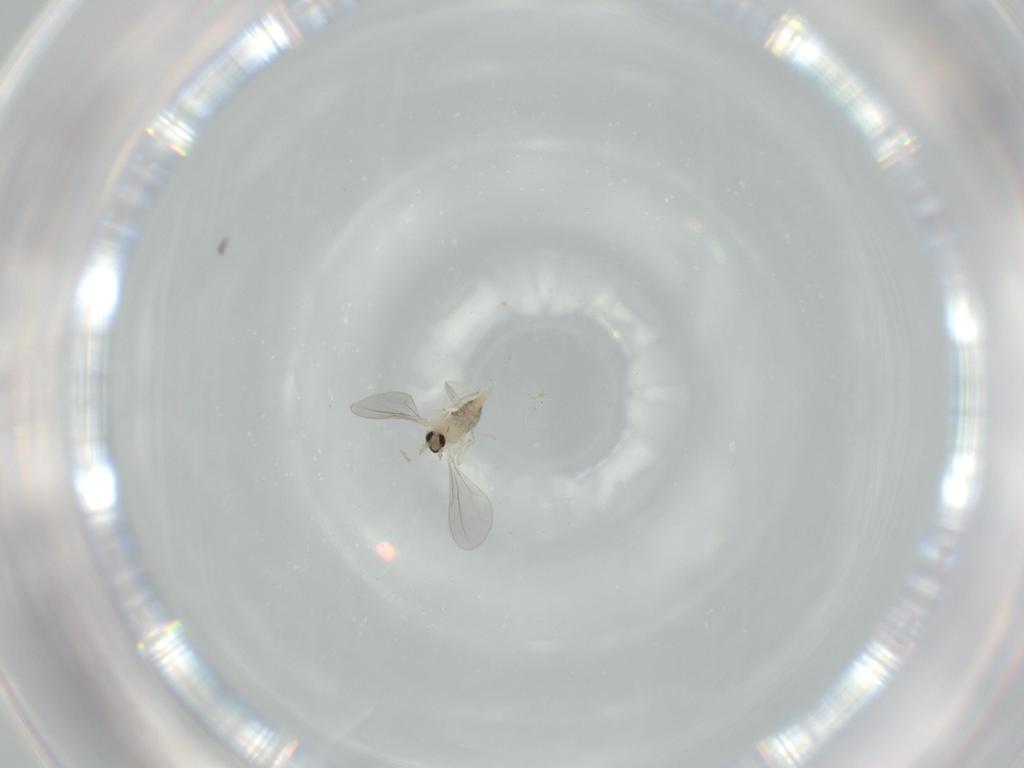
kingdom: Animalia
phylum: Arthropoda
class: Insecta
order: Diptera
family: Cecidomyiidae
